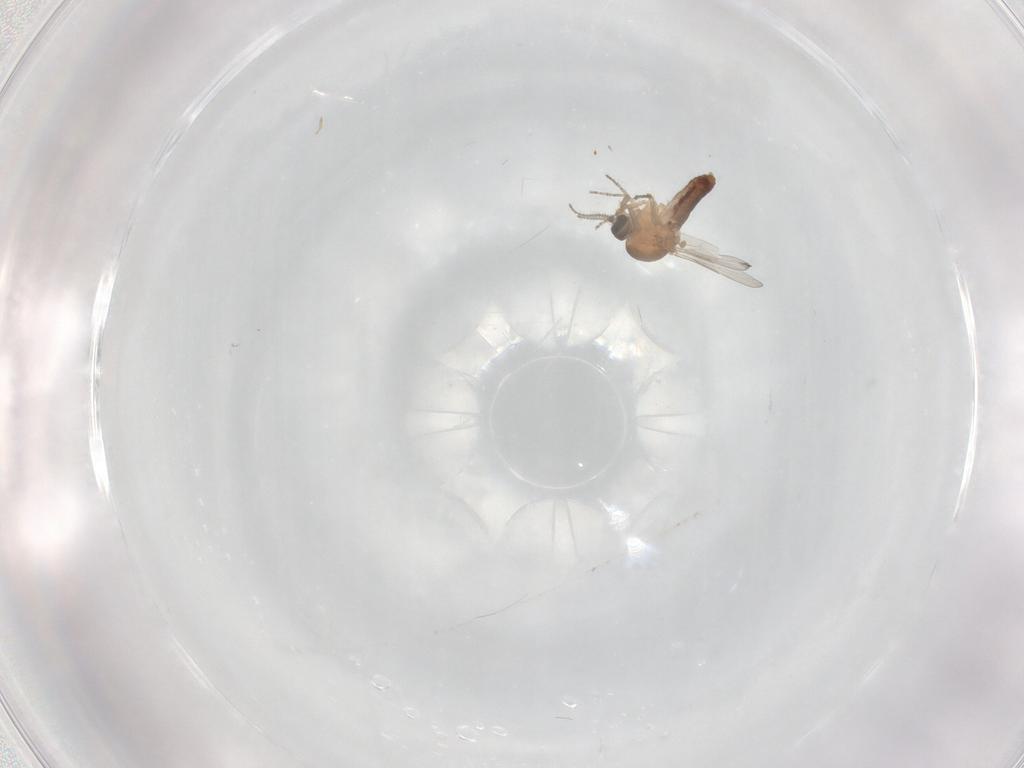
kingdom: Animalia
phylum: Arthropoda
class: Insecta
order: Diptera
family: Ceratopogonidae
